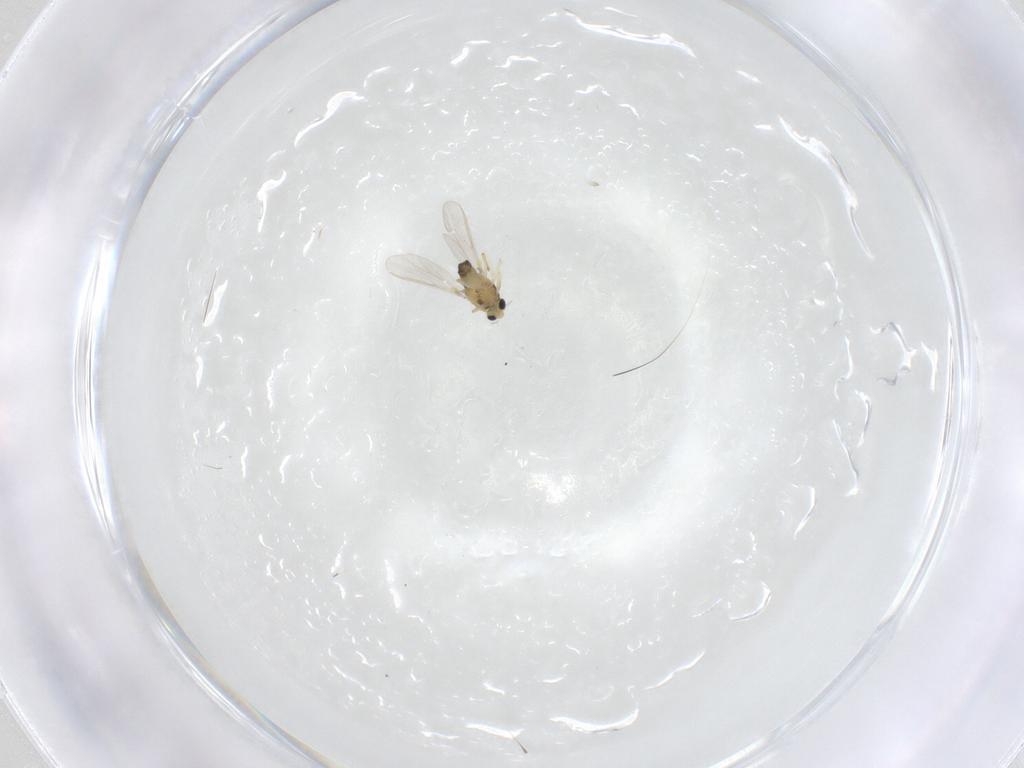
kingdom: Animalia
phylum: Arthropoda
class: Insecta
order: Diptera
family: Chironomidae
